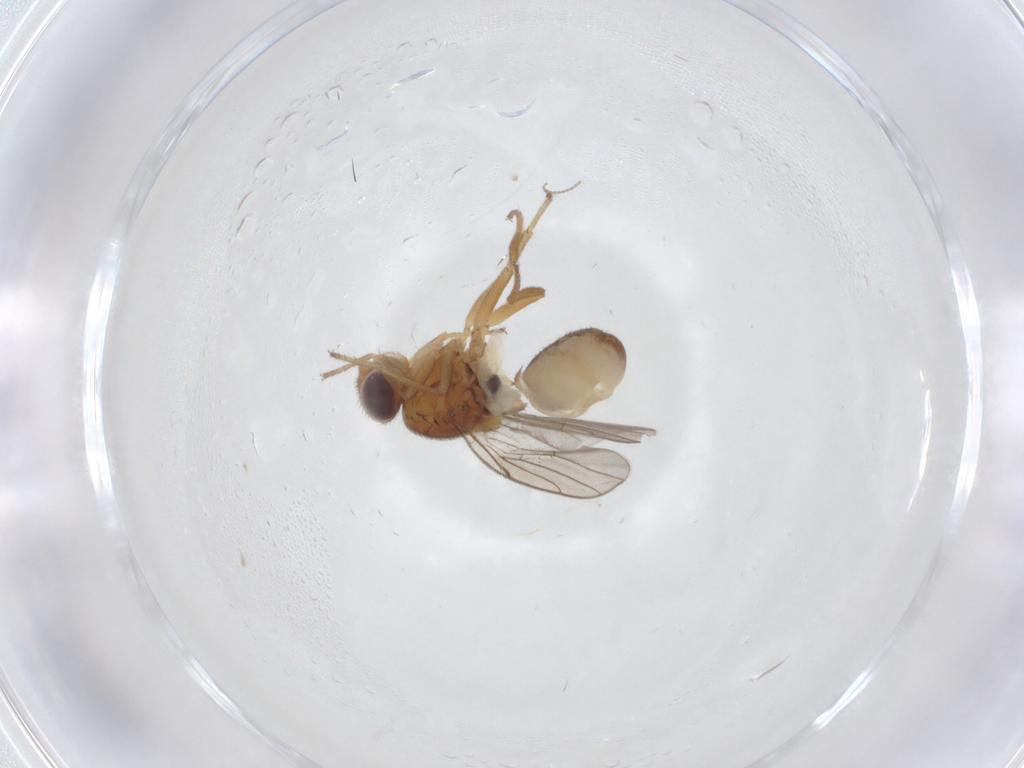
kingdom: Animalia
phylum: Arthropoda
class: Insecta
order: Diptera
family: Chloropidae
